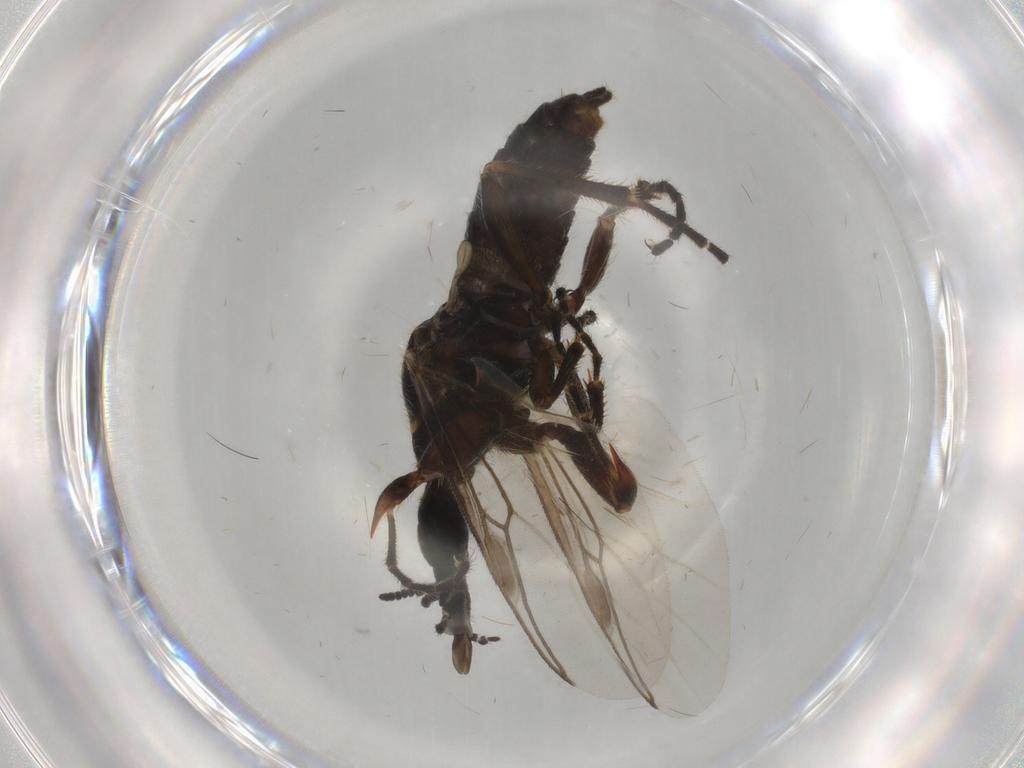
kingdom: Animalia
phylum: Arthropoda
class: Insecta
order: Diptera
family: Bibionidae
